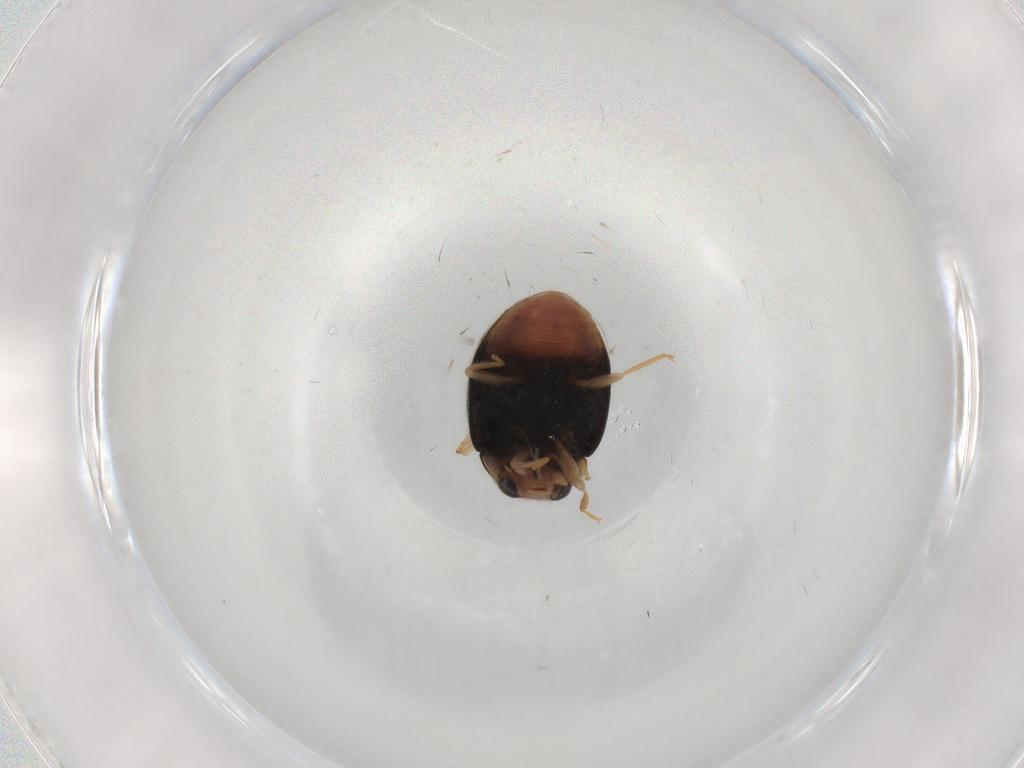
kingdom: Animalia
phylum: Arthropoda
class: Insecta
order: Coleoptera
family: Coccinellidae
